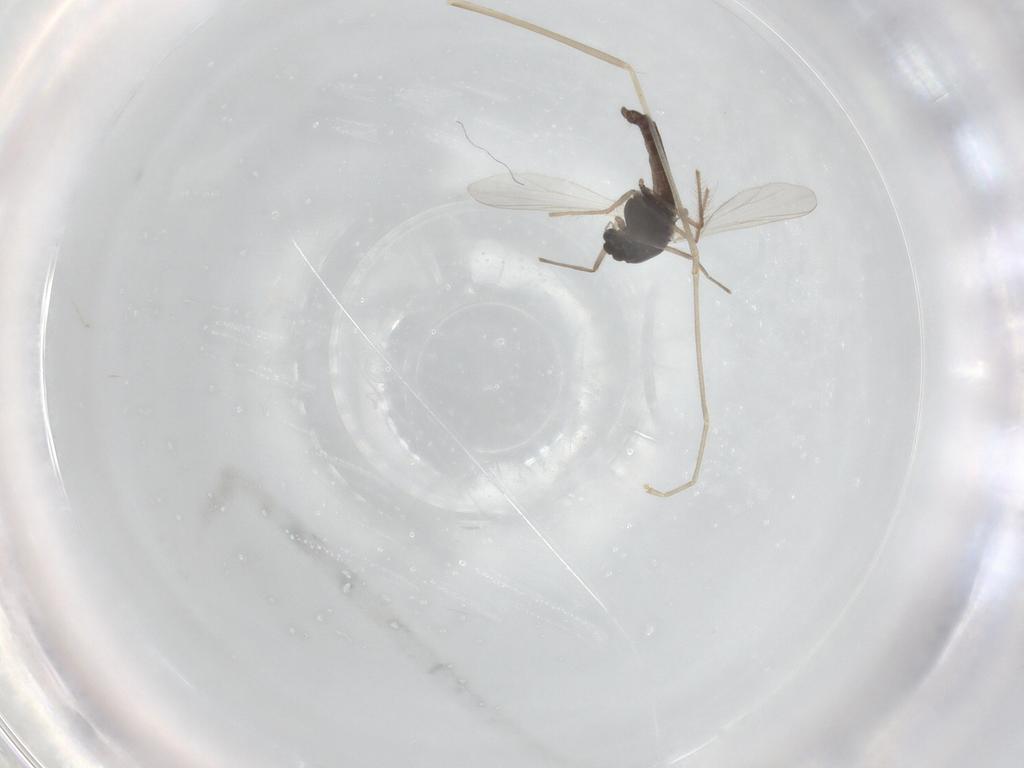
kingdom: Animalia
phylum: Arthropoda
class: Insecta
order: Diptera
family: Chironomidae
